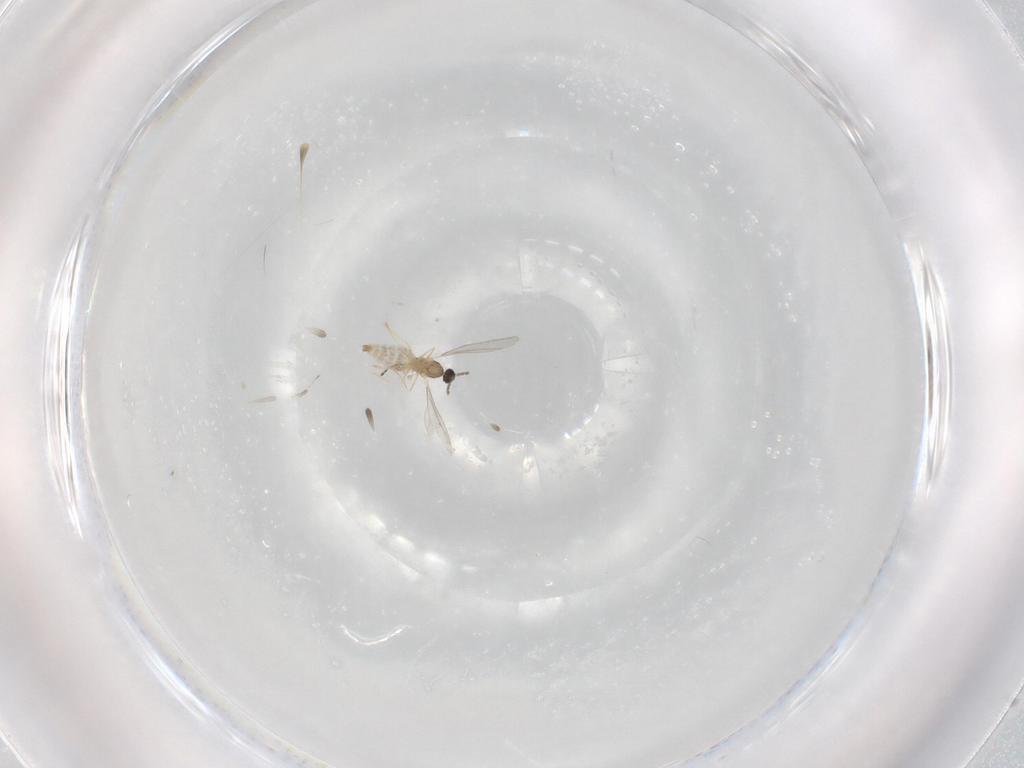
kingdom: Animalia
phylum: Arthropoda
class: Insecta
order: Diptera
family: Cecidomyiidae
